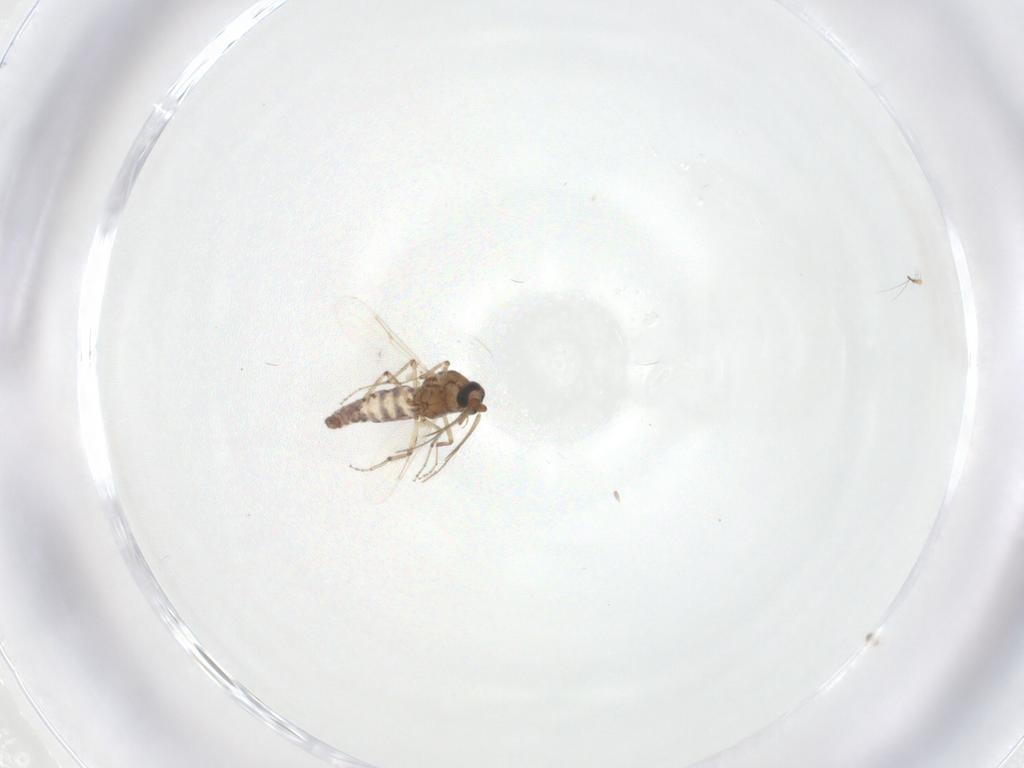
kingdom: Animalia
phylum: Arthropoda
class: Insecta
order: Diptera
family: Ceratopogonidae
